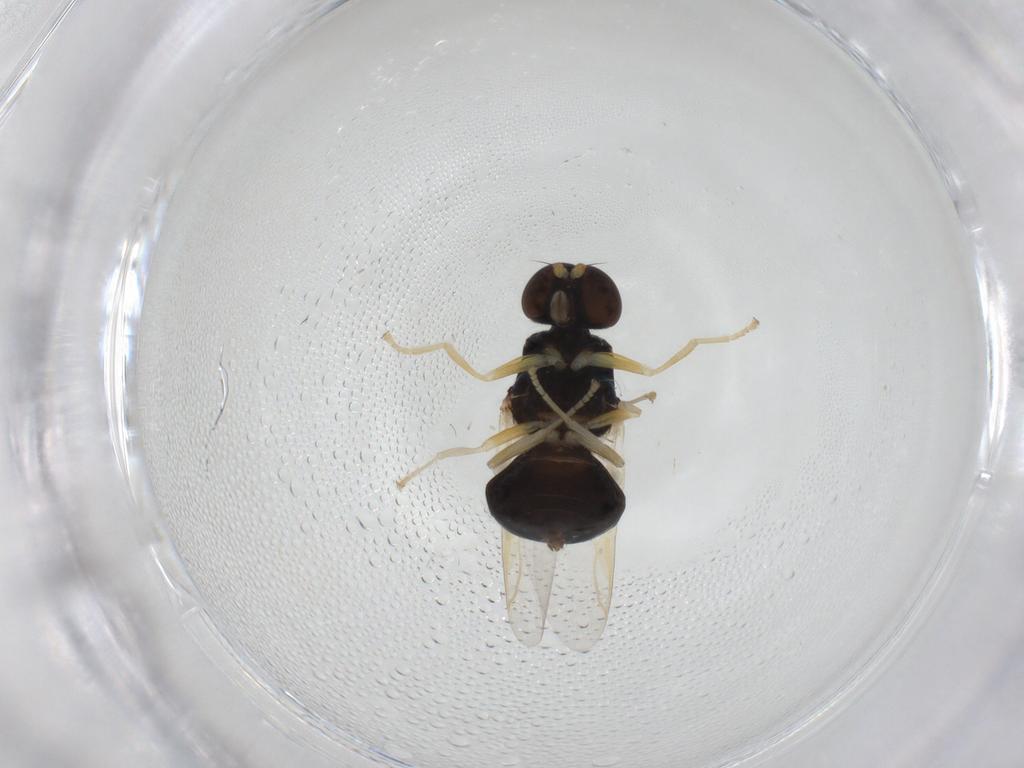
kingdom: Animalia
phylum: Arthropoda
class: Insecta
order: Diptera
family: Stratiomyidae
